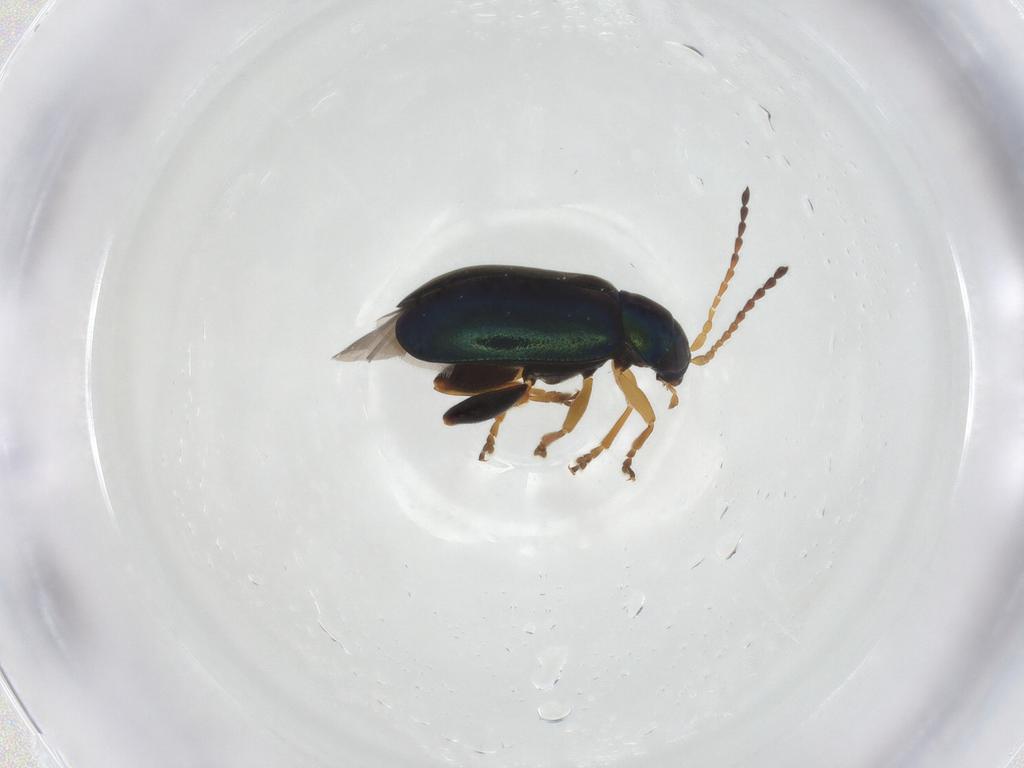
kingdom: Animalia
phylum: Arthropoda
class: Insecta
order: Coleoptera
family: Chrysomelidae
